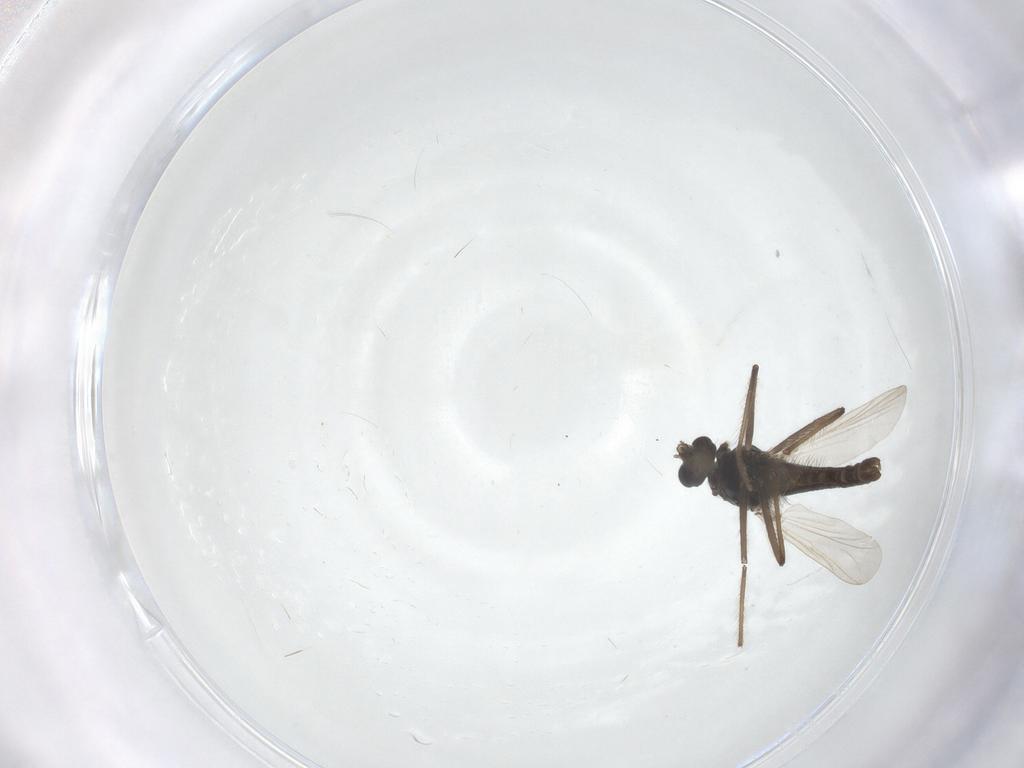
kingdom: Animalia
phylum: Arthropoda
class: Insecta
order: Diptera
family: Chironomidae
